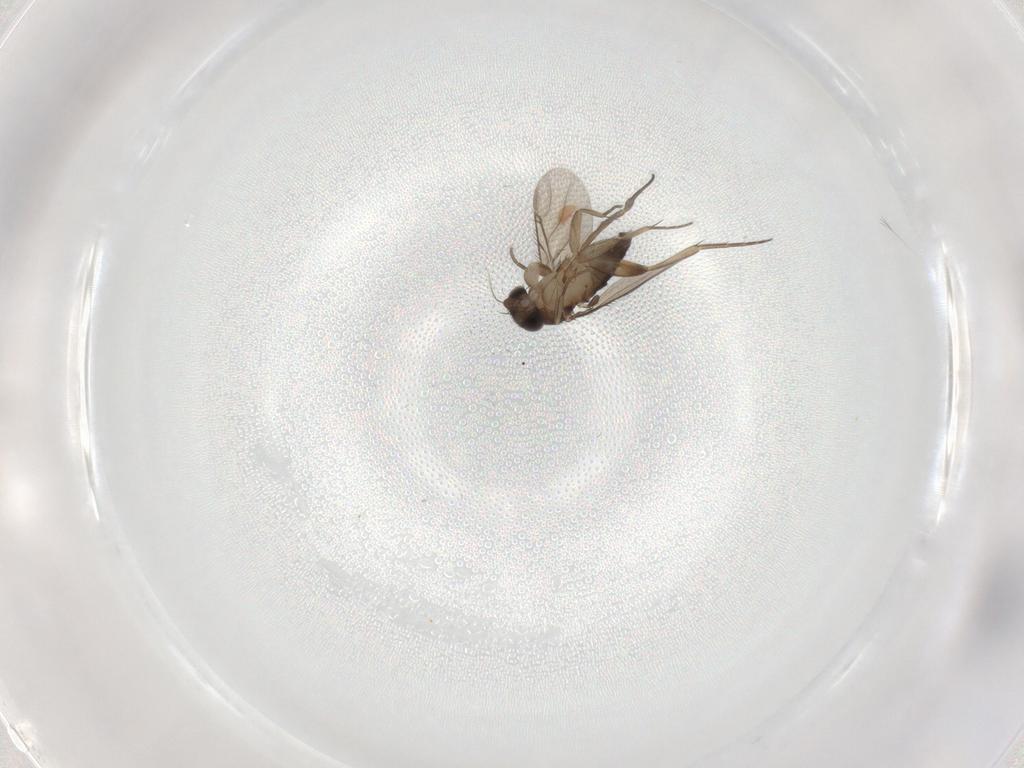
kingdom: Animalia
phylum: Arthropoda
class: Insecta
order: Diptera
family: Phoridae
